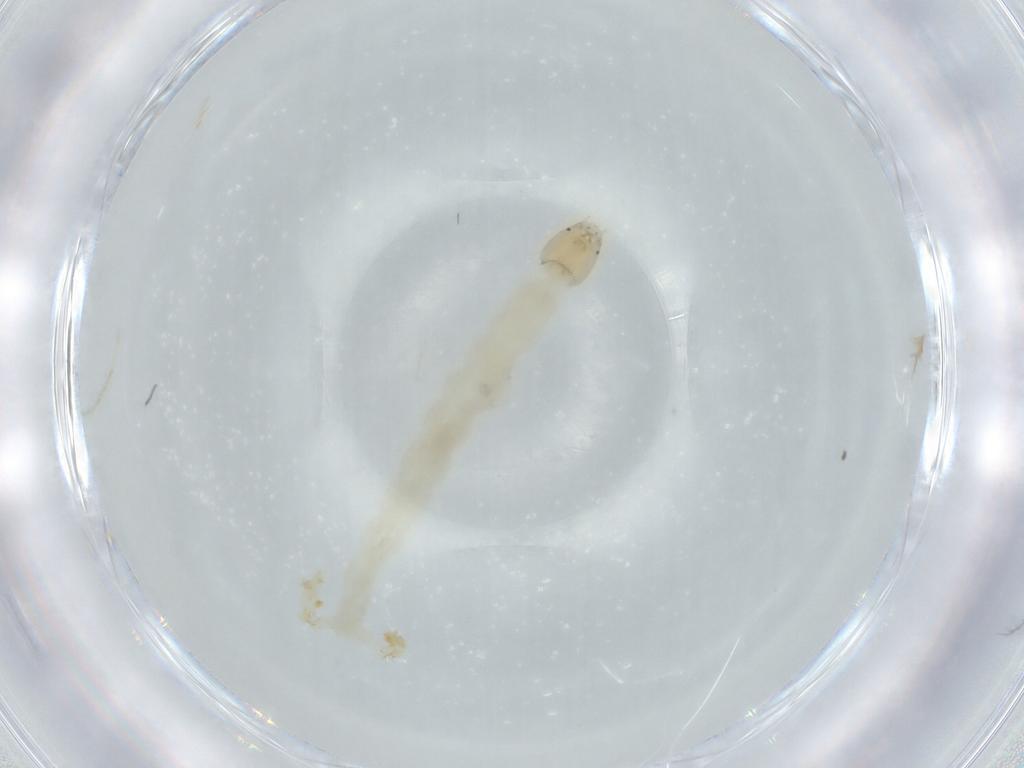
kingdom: Animalia
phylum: Arthropoda
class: Insecta
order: Diptera
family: Chironomidae
